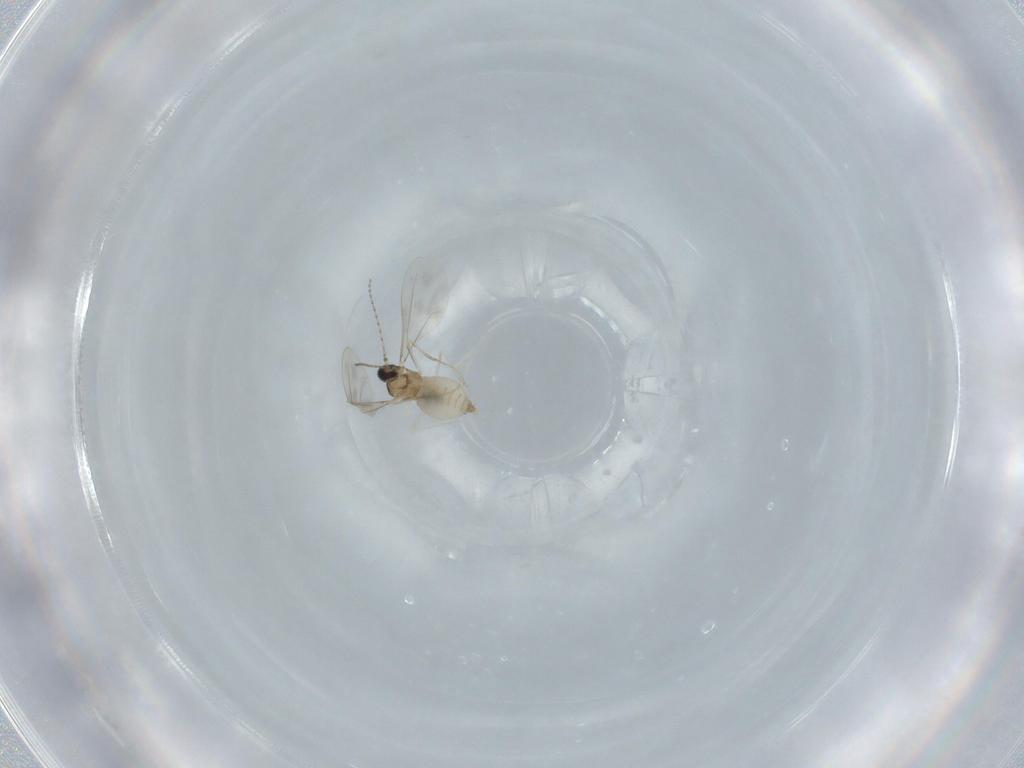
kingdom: Animalia
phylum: Arthropoda
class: Insecta
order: Diptera
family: Cecidomyiidae
